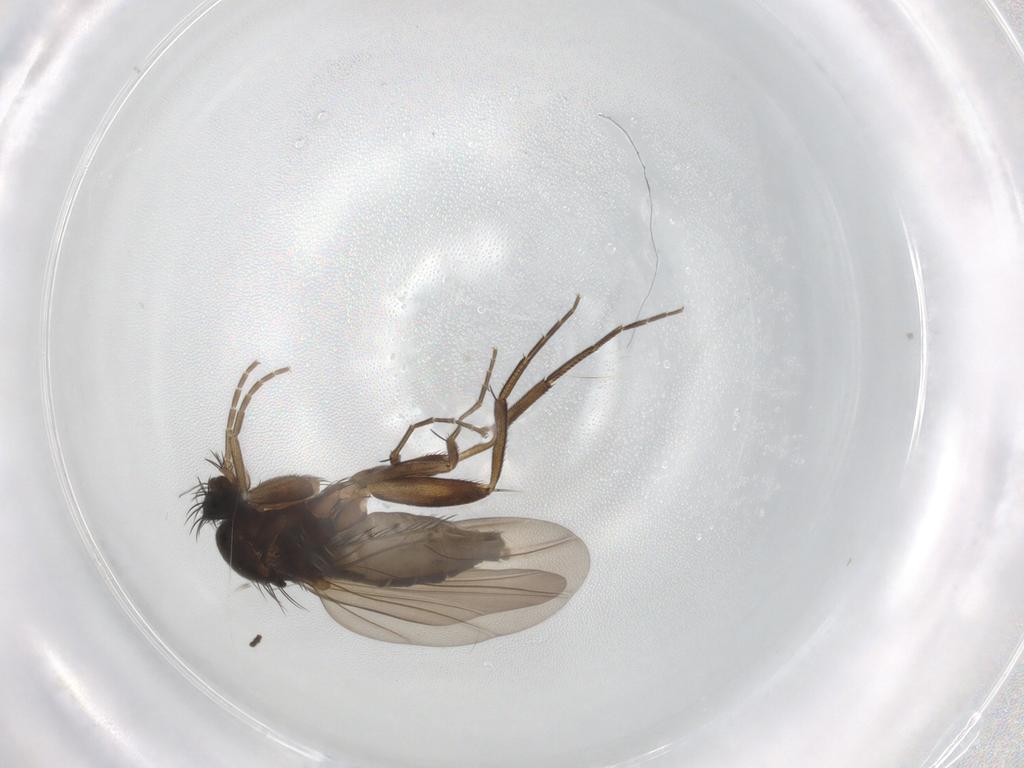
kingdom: Animalia
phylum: Arthropoda
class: Insecta
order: Diptera
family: Phoridae
